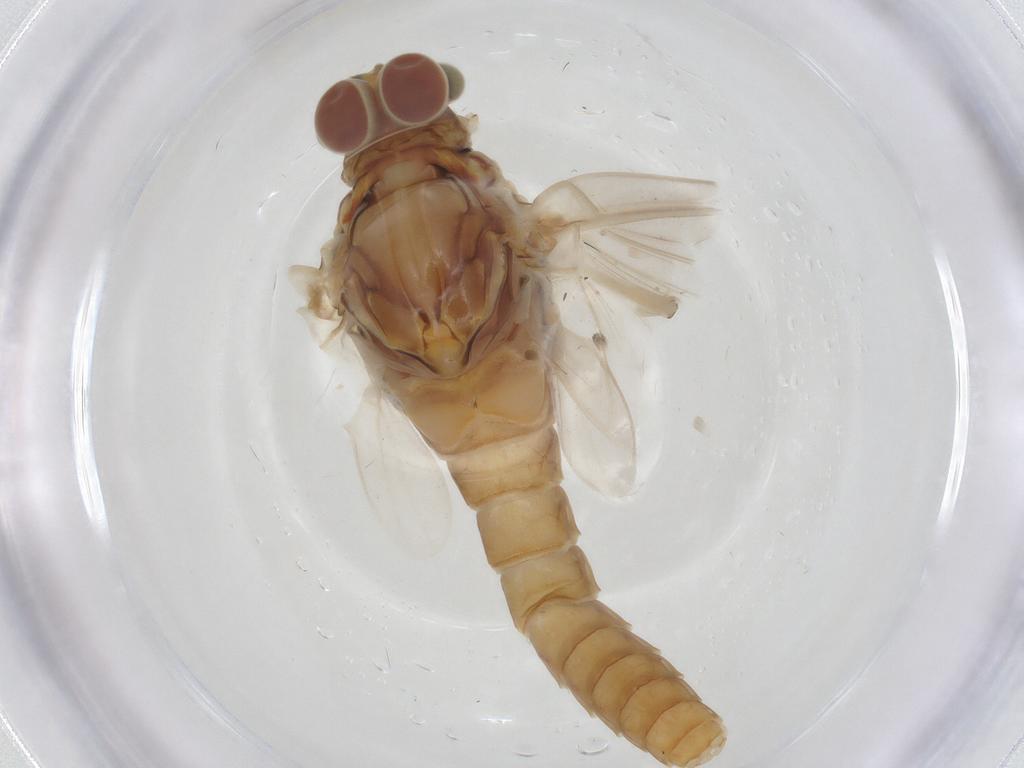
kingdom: Animalia
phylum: Arthropoda
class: Insecta
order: Diptera
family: Chironomidae
